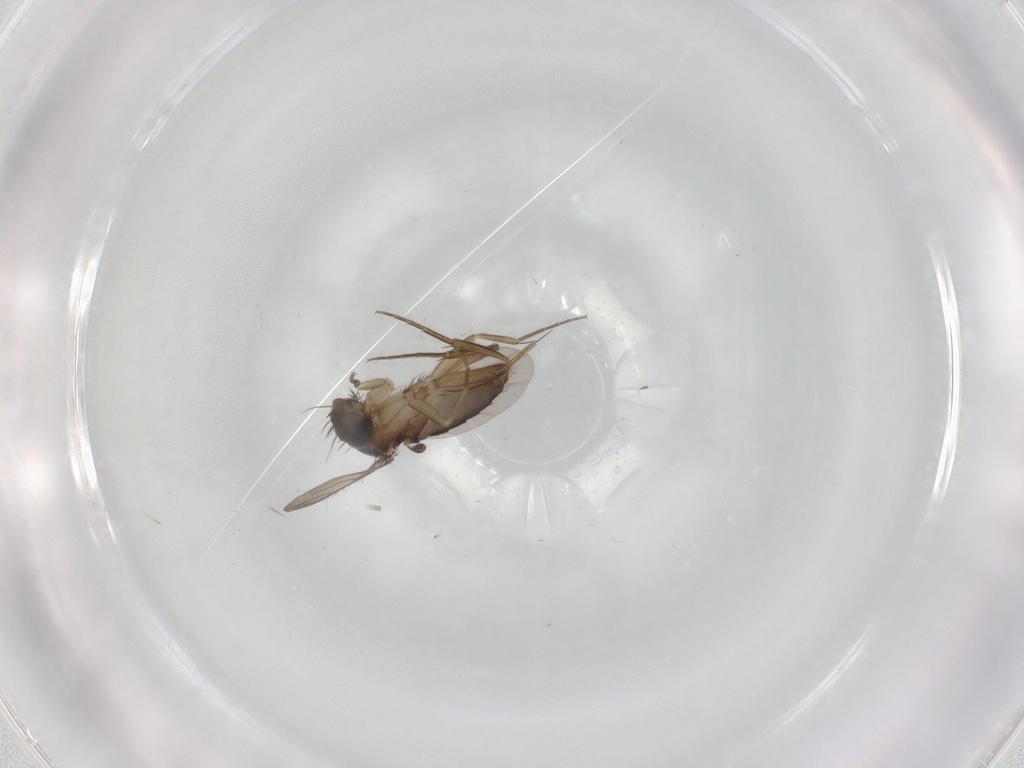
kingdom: Animalia
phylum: Arthropoda
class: Insecta
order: Diptera
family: Phoridae
